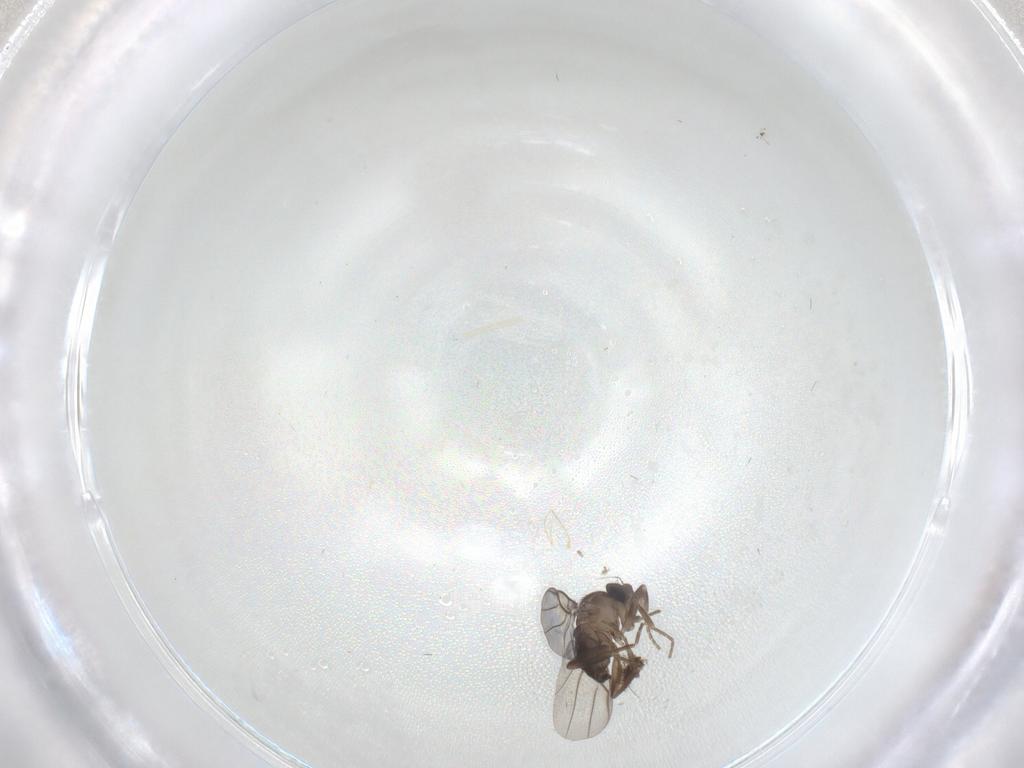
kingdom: Animalia
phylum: Arthropoda
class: Insecta
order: Diptera
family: Phoridae
